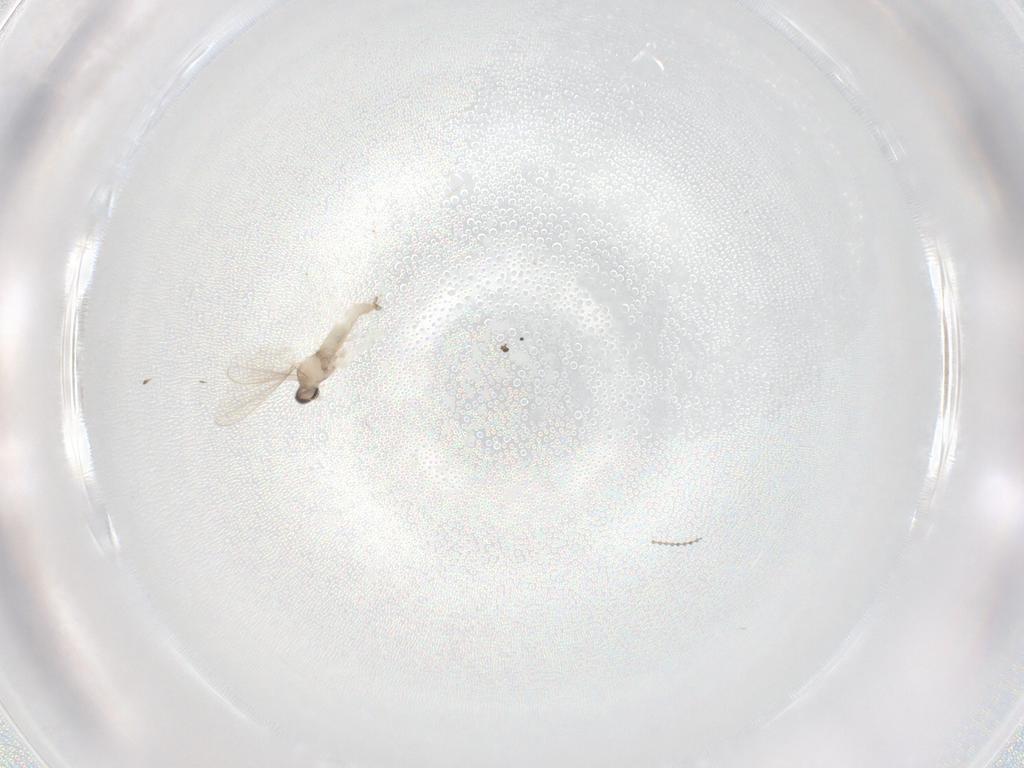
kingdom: Animalia
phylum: Arthropoda
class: Insecta
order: Diptera
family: Cecidomyiidae
